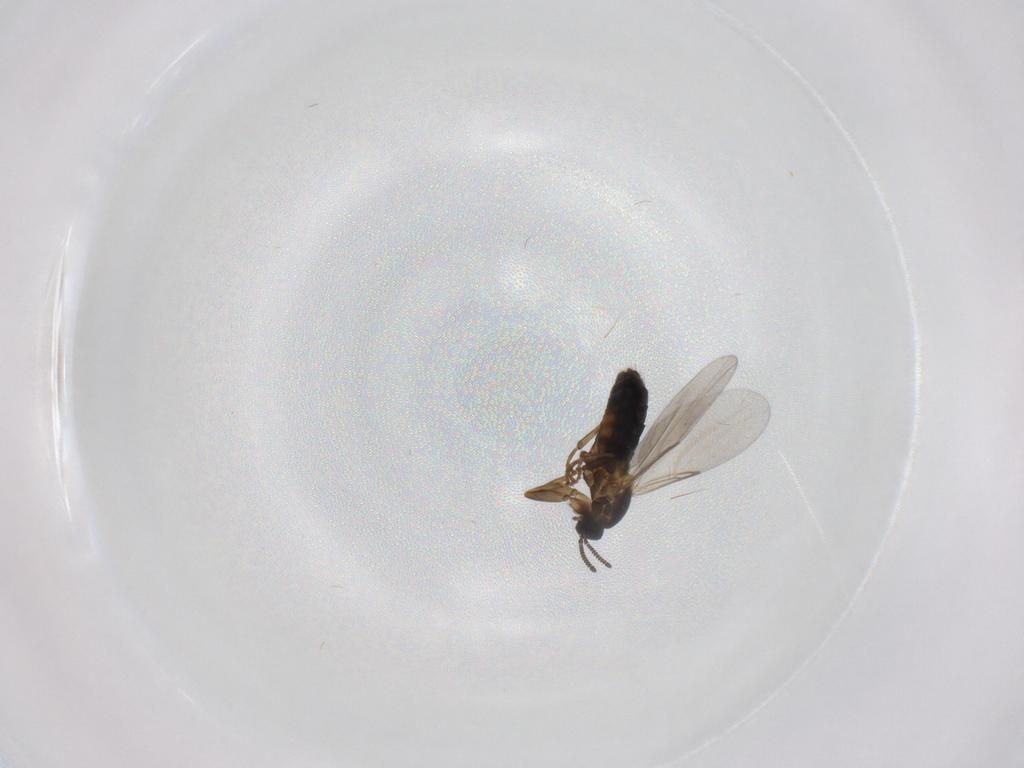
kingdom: Animalia
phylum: Arthropoda
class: Insecta
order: Diptera
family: Scatopsidae
